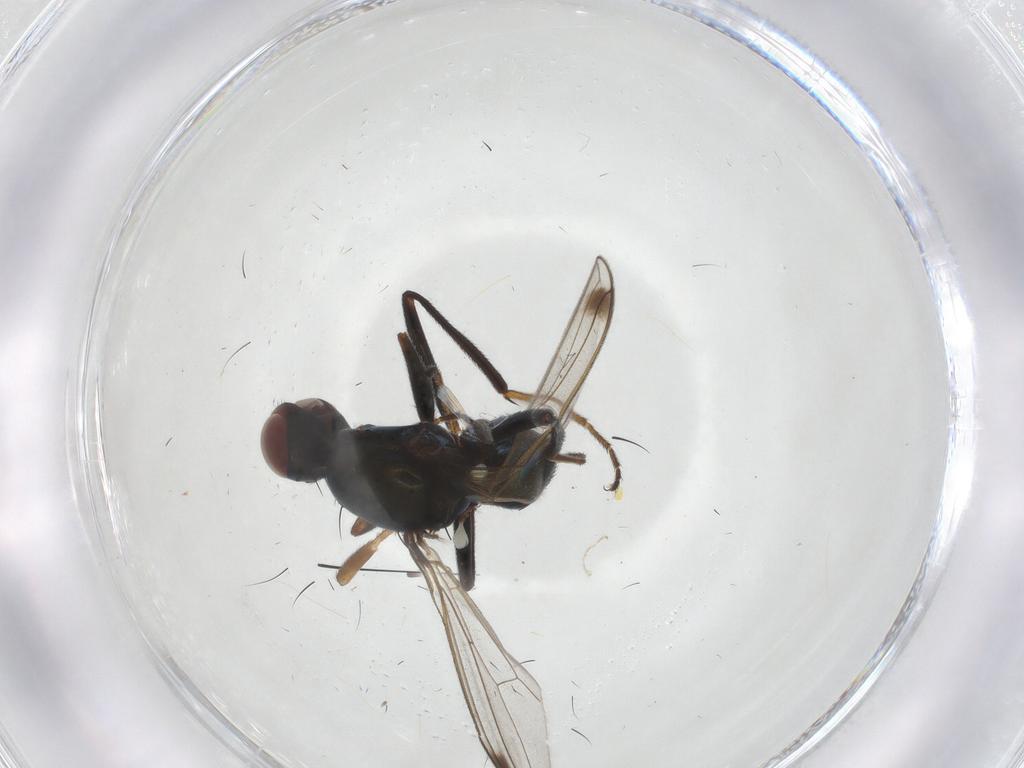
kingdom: Animalia
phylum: Arthropoda
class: Insecta
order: Diptera
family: Sepsidae
